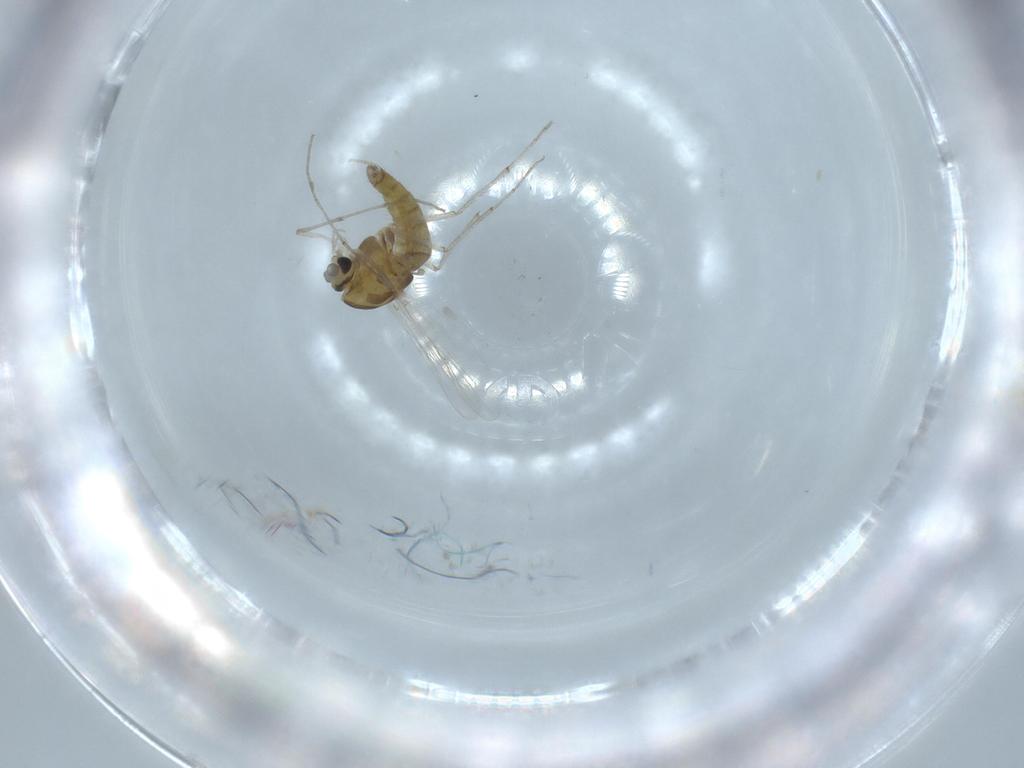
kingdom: Animalia
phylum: Arthropoda
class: Insecta
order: Diptera
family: Chironomidae
